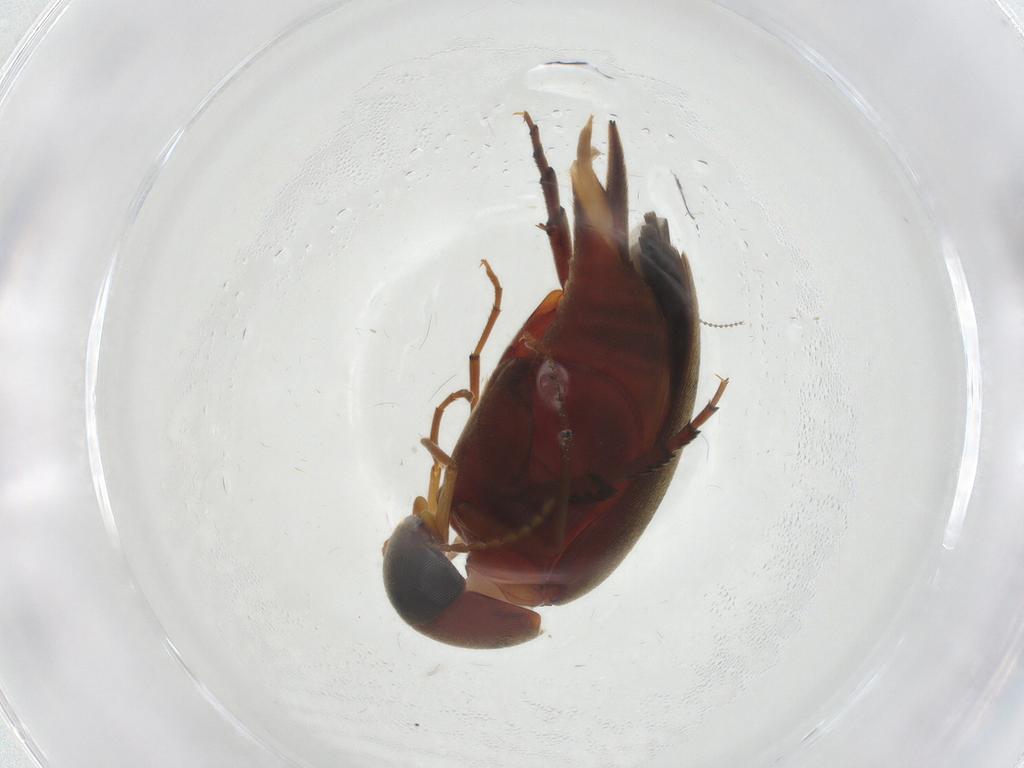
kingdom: Animalia
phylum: Arthropoda
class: Insecta
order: Coleoptera
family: Mordellidae
